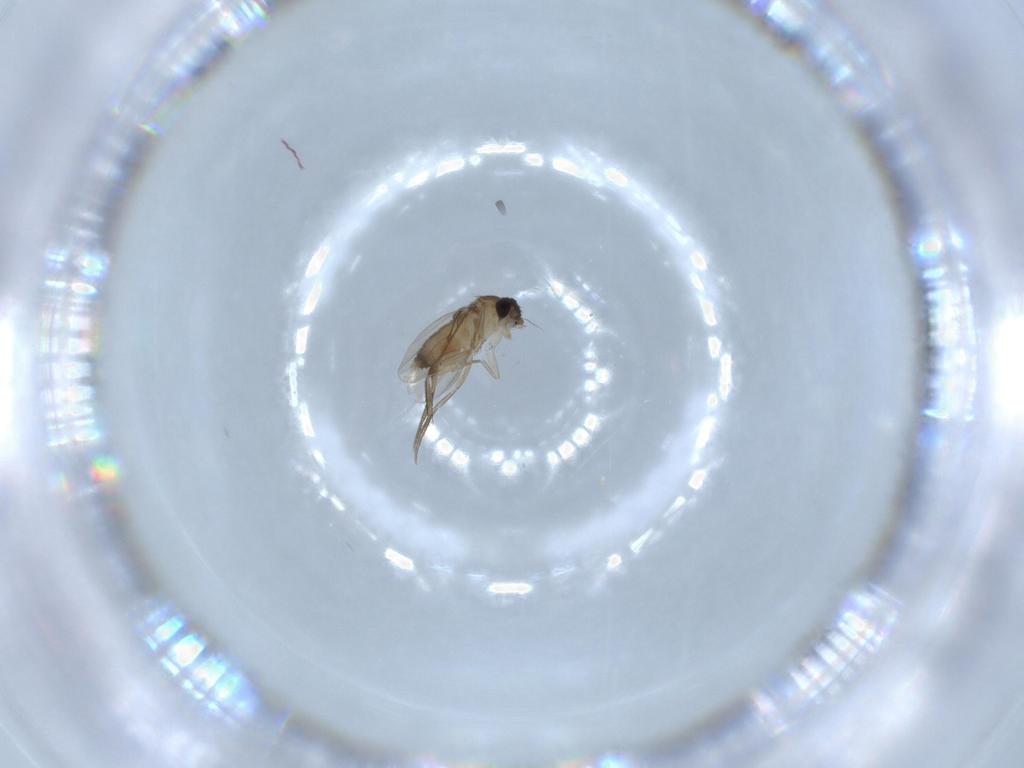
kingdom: Animalia
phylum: Arthropoda
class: Insecta
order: Diptera
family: Phoridae
